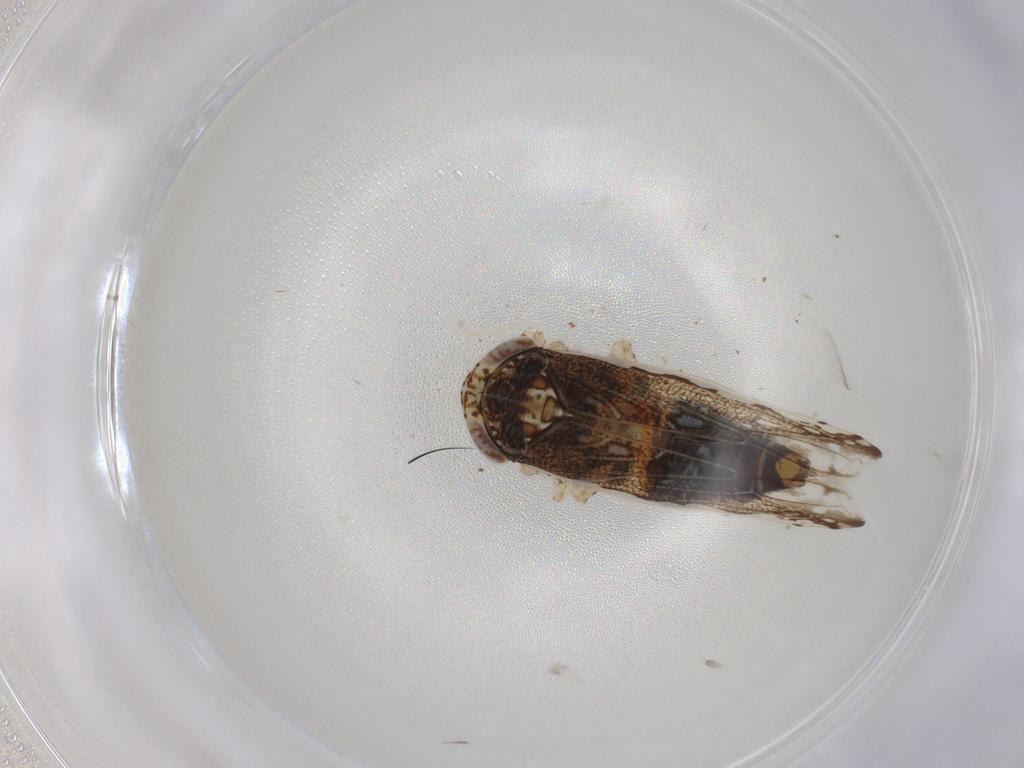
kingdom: Animalia
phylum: Arthropoda
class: Insecta
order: Hemiptera
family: Cicadellidae
